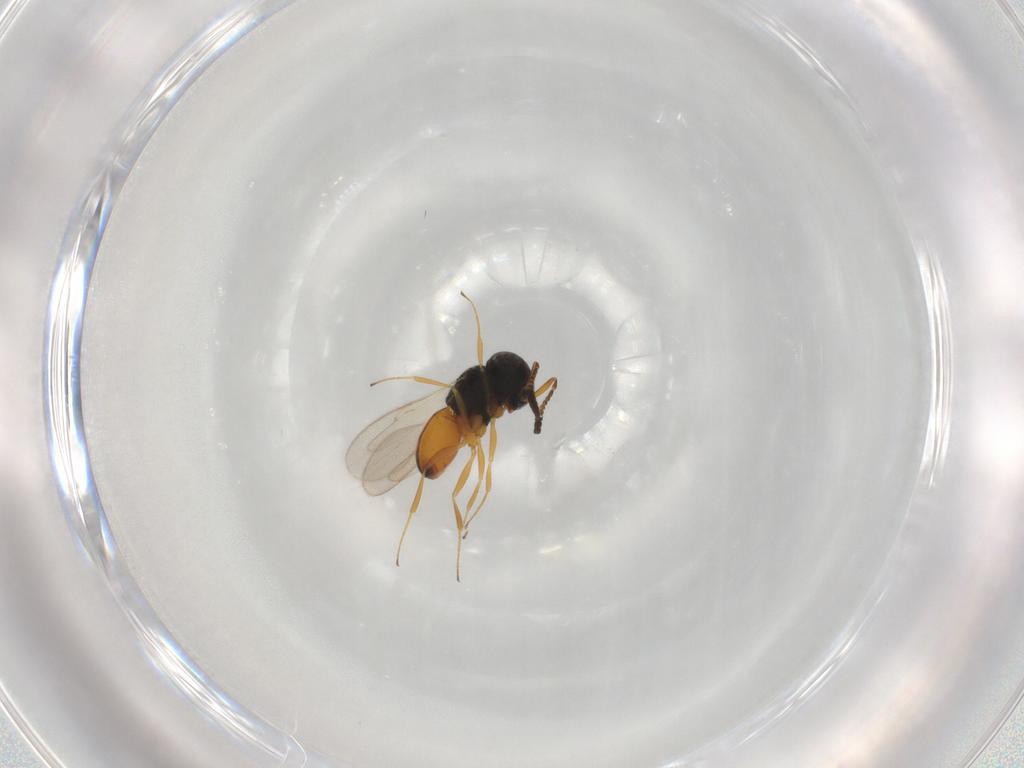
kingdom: Animalia
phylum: Arthropoda
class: Insecta
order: Hymenoptera
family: Scelionidae
